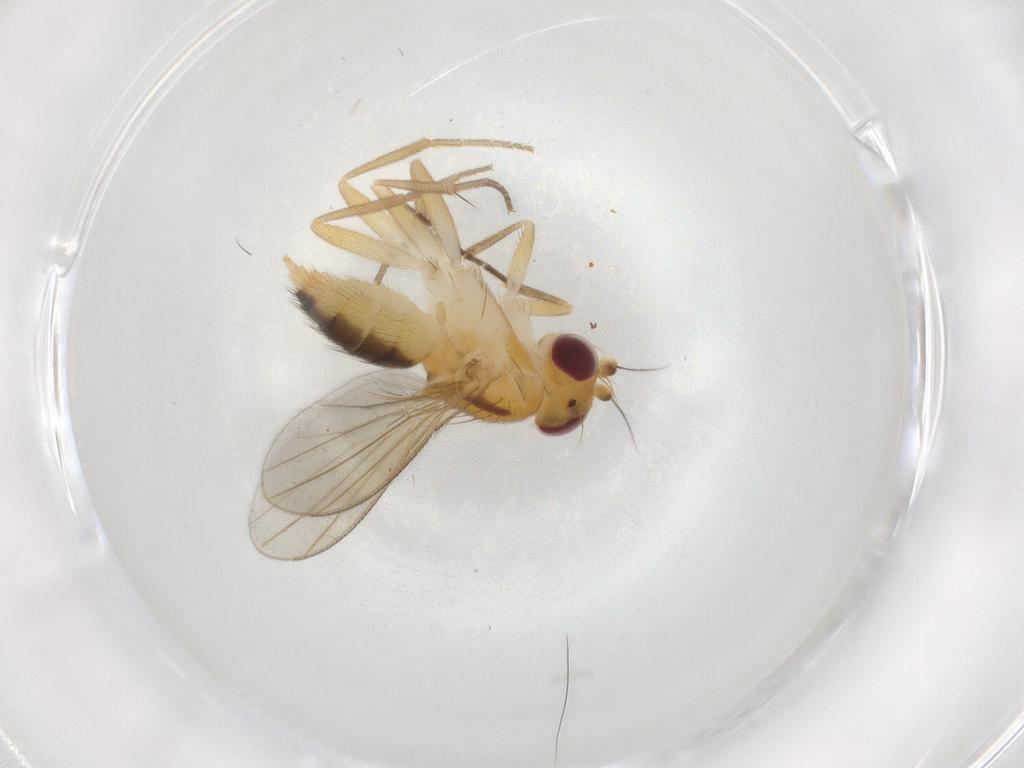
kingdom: Animalia
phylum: Arthropoda
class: Insecta
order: Diptera
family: Clusiidae
